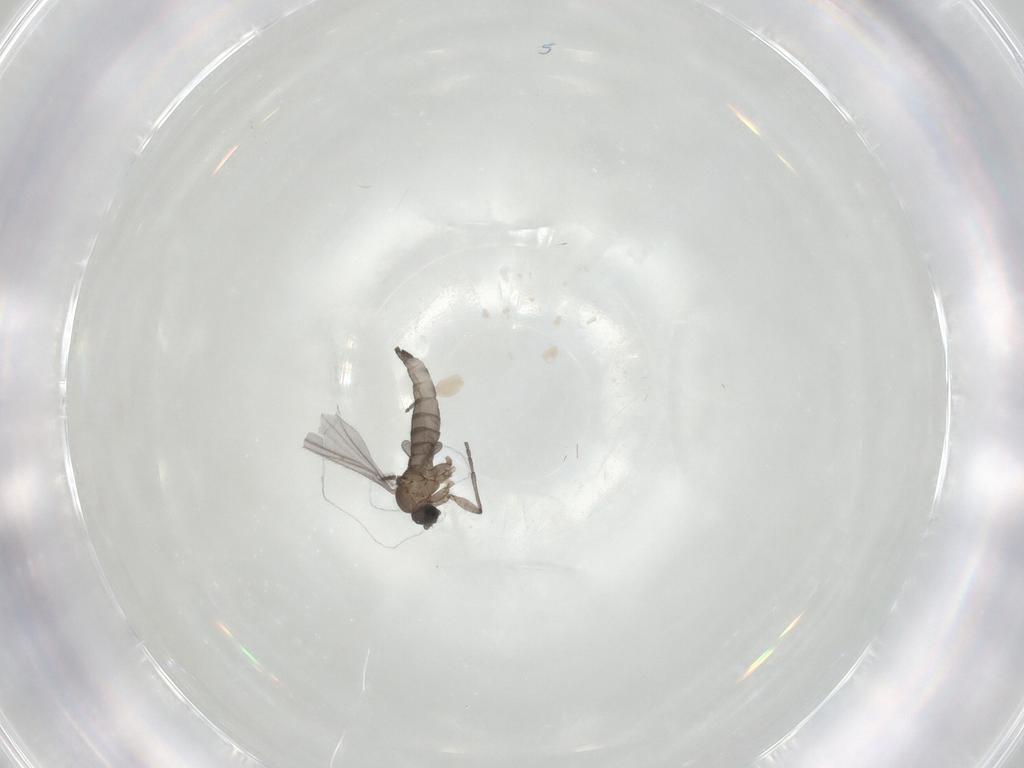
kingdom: Animalia
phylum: Arthropoda
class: Insecta
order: Diptera
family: Sciaridae
